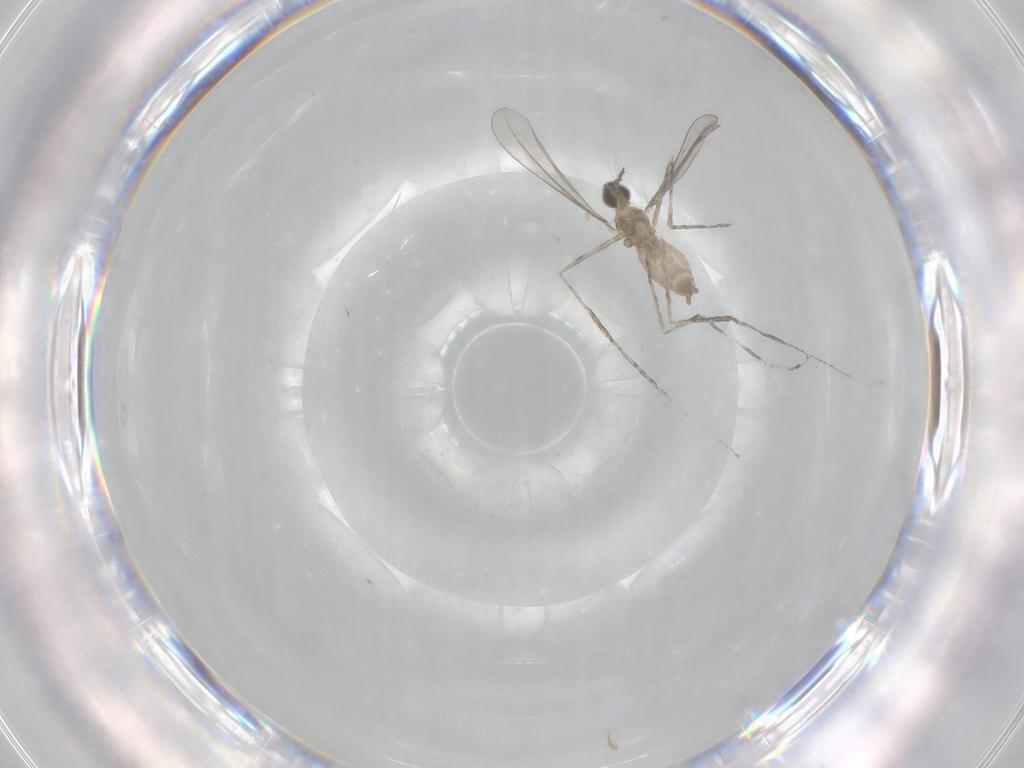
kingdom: Animalia
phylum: Arthropoda
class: Insecta
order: Diptera
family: Cecidomyiidae
